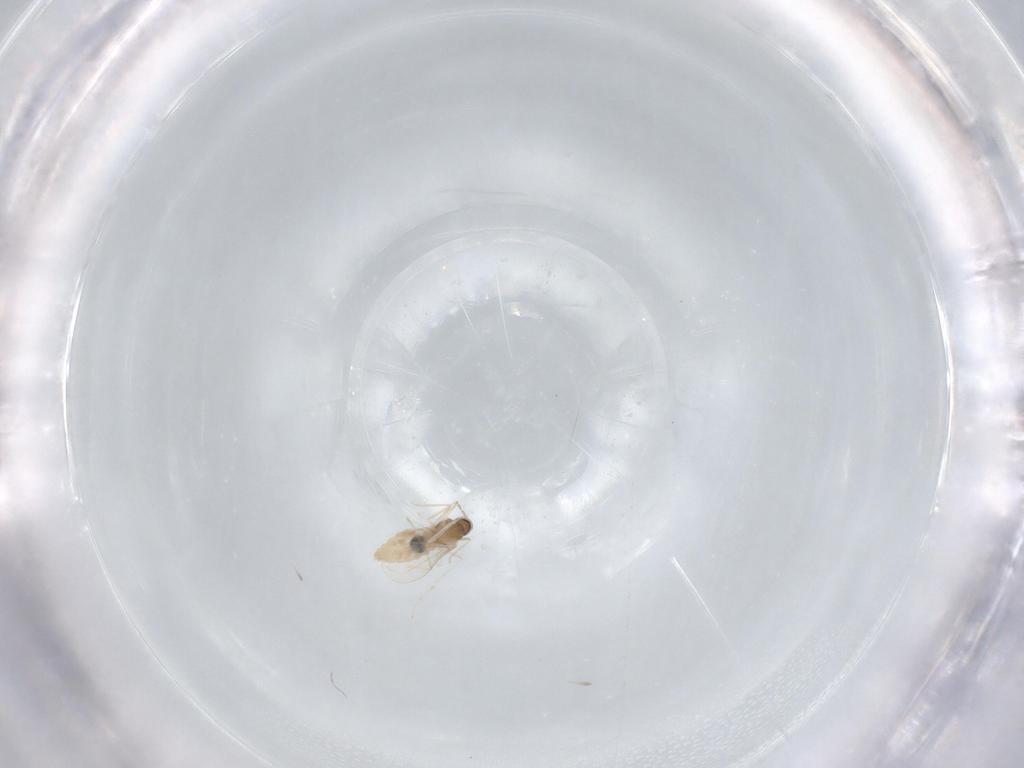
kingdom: Animalia
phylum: Arthropoda
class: Insecta
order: Diptera
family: Cecidomyiidae
